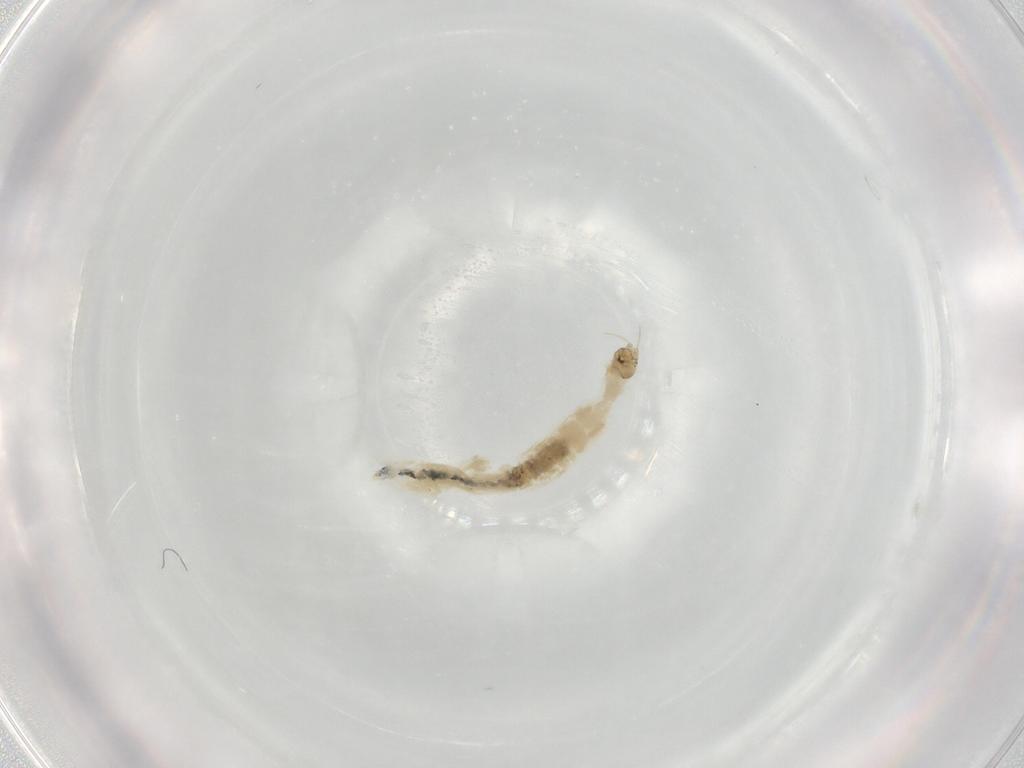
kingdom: Animalia
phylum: Arthropoda
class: Insecta
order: Diptera
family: Chironomidae
